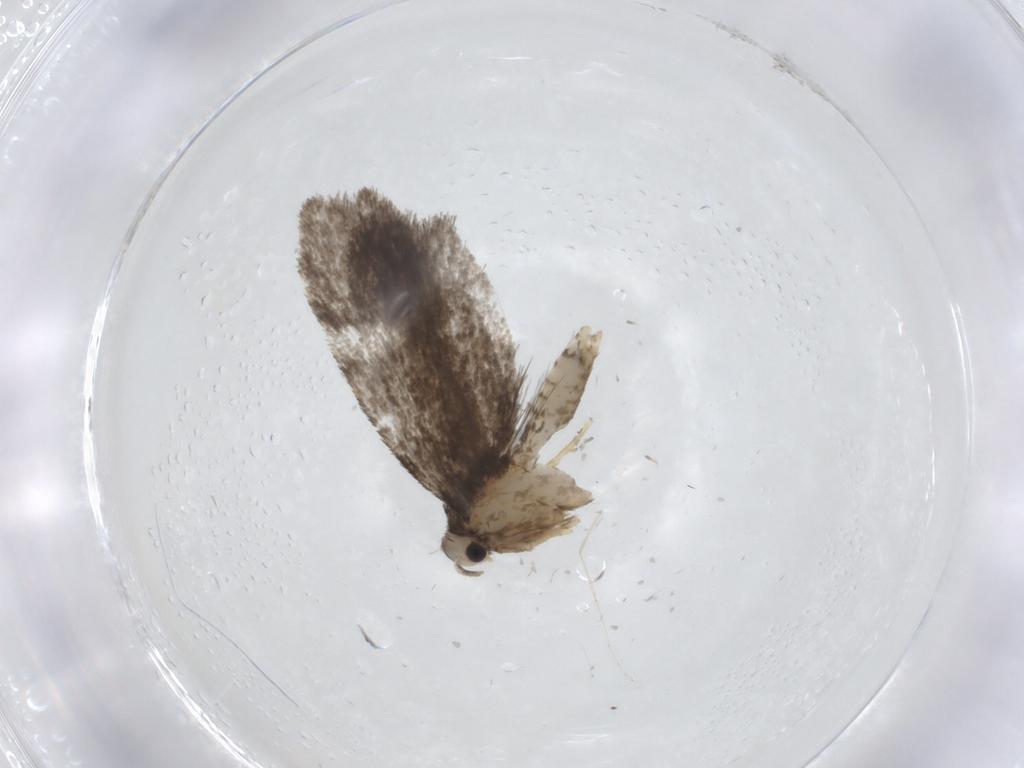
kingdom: Animalia
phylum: Arthropoda
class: Insecta
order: Lepidoptera
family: Psychidae
